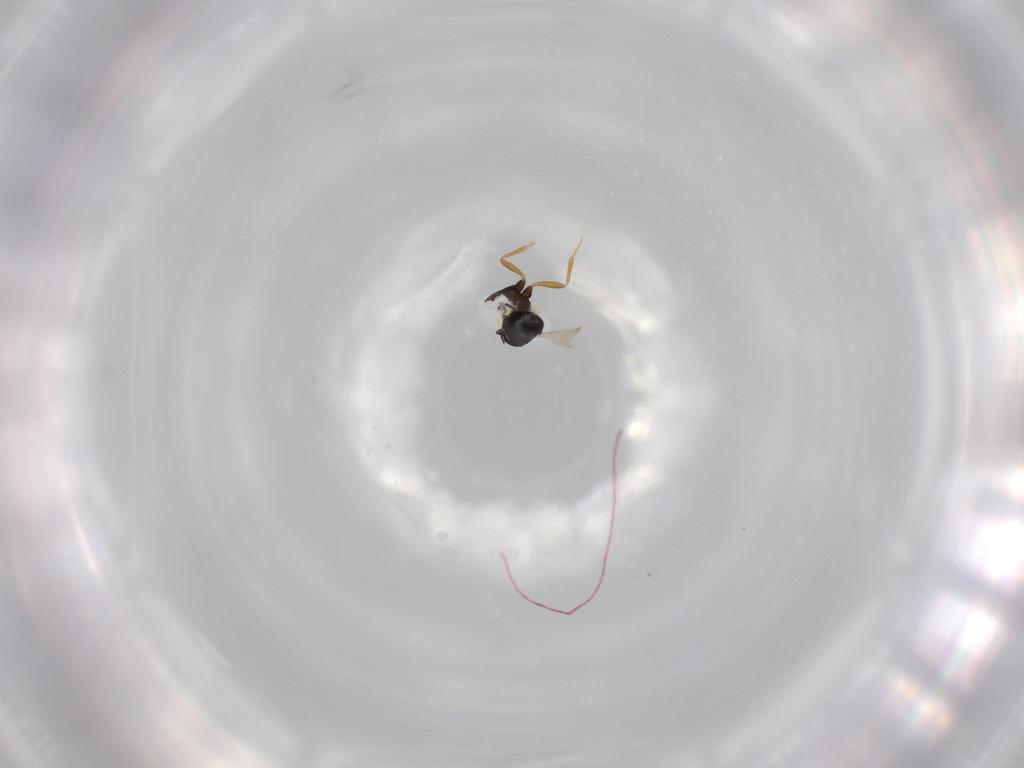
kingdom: Animalia
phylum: Arthropoda
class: Insecta
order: Hymenoptera
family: Scelionidae
